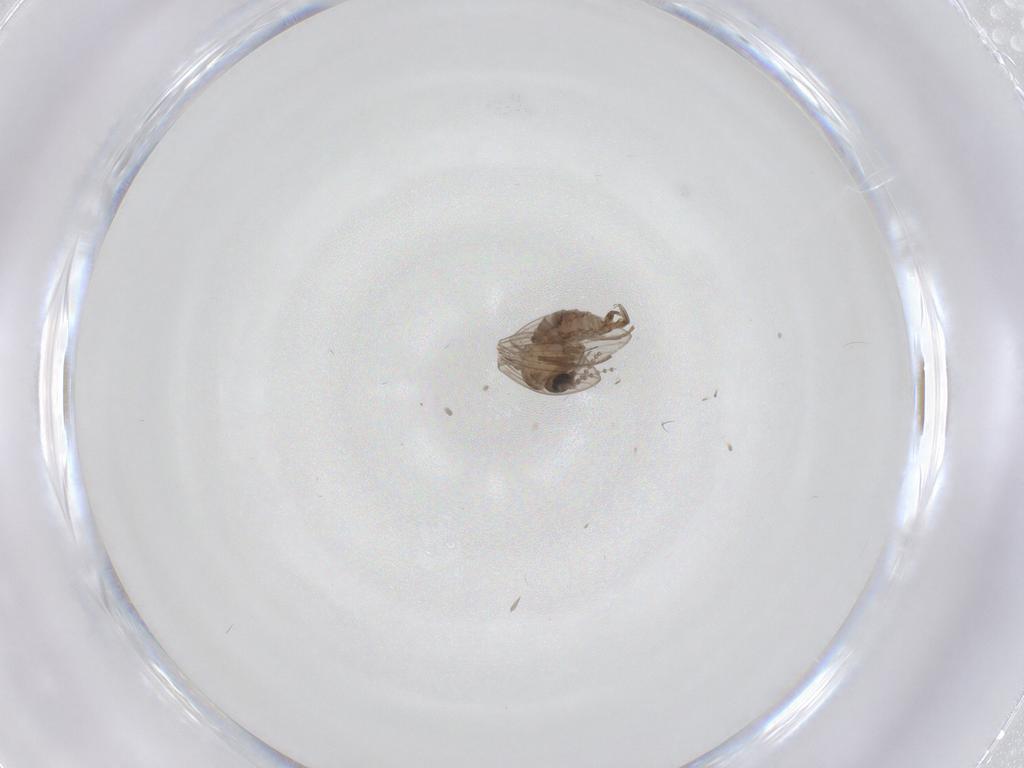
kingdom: Animalia
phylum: Arthropoda
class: Insecta
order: Diptera
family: Psychodidae
